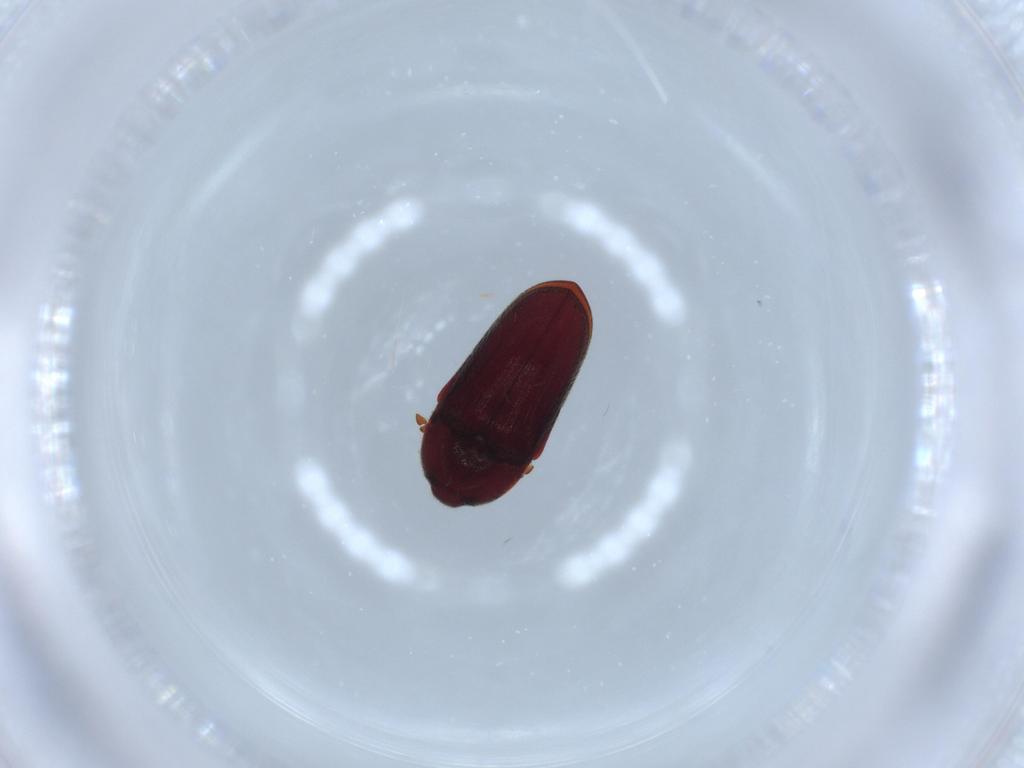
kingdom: Animalia
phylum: Arthropoda
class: Insecta
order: Coleoptera
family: Throscidae
